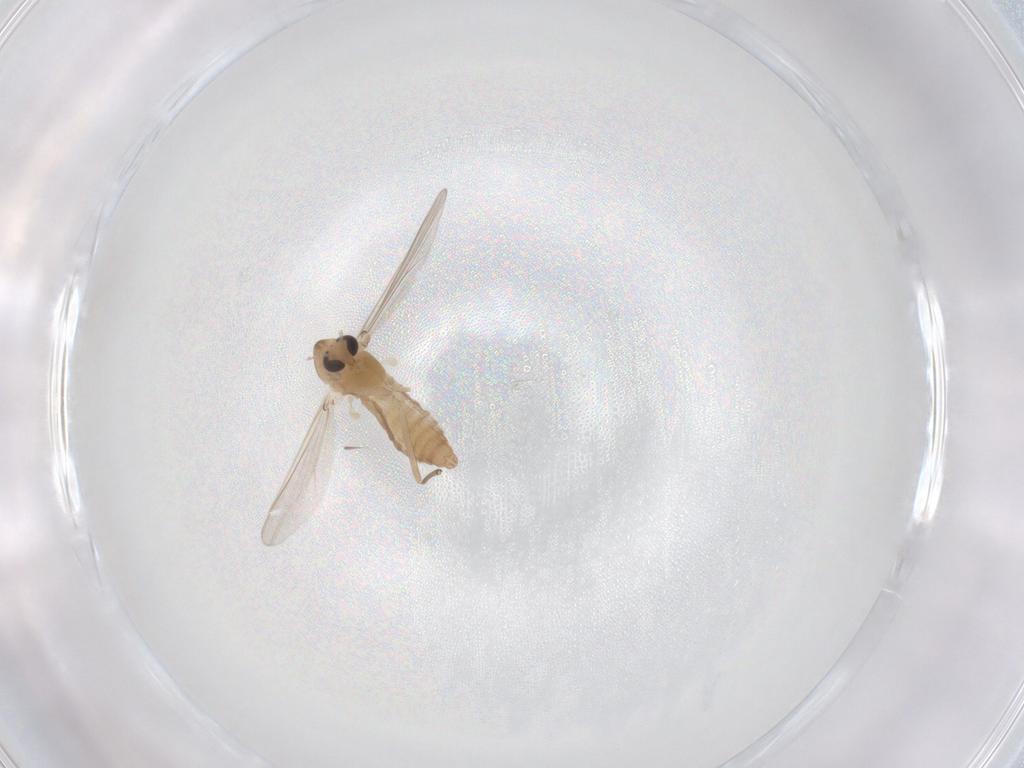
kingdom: Animalia
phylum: Arthropoda
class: Insecta
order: Diptera
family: Chironomidae
